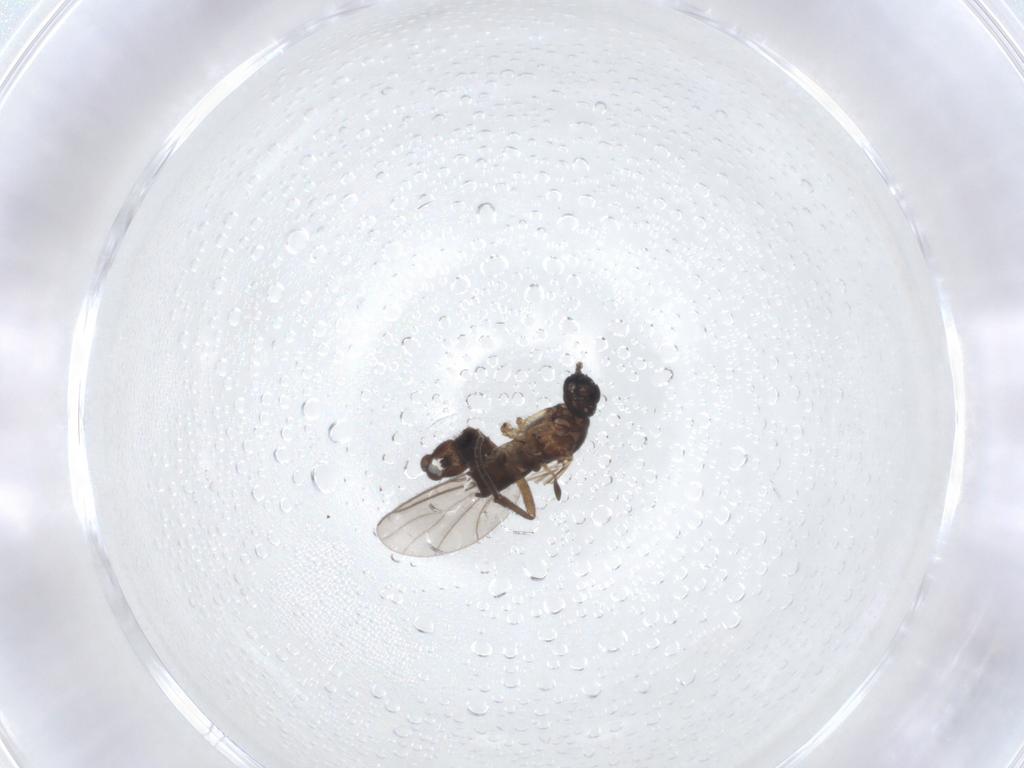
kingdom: Animalia
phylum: Arthropoda
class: Insecta
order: Diptera
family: Sciaridae
